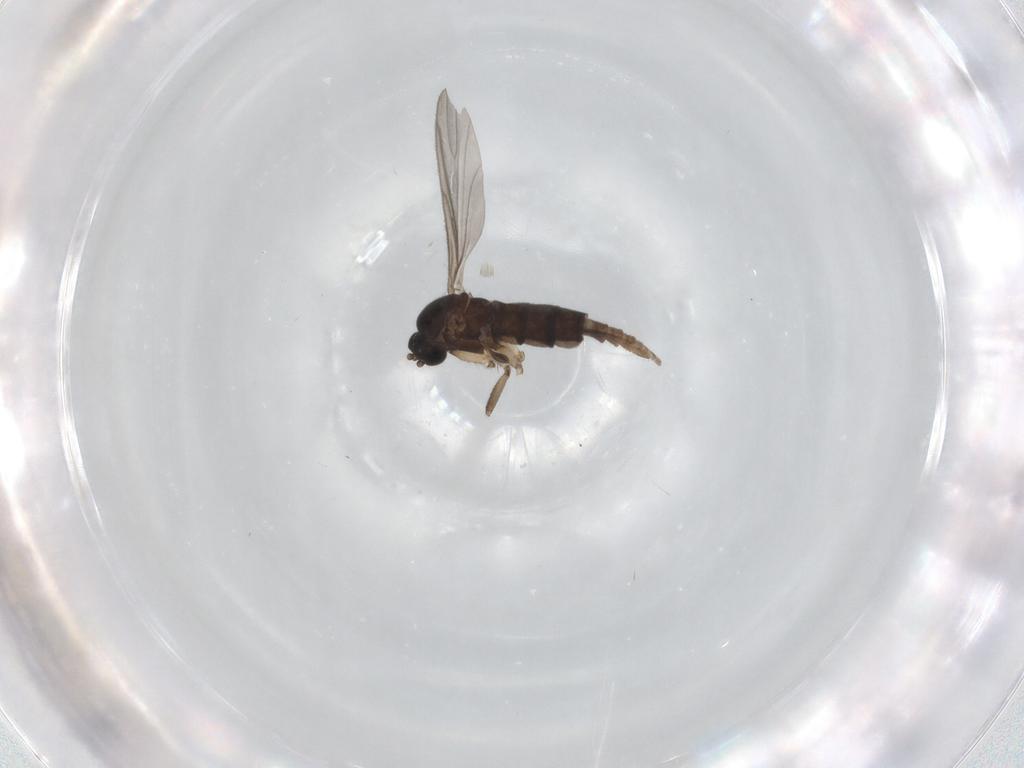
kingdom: Animalia
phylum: Arthropoda
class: Insecta
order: Diptera
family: Sciaridae
